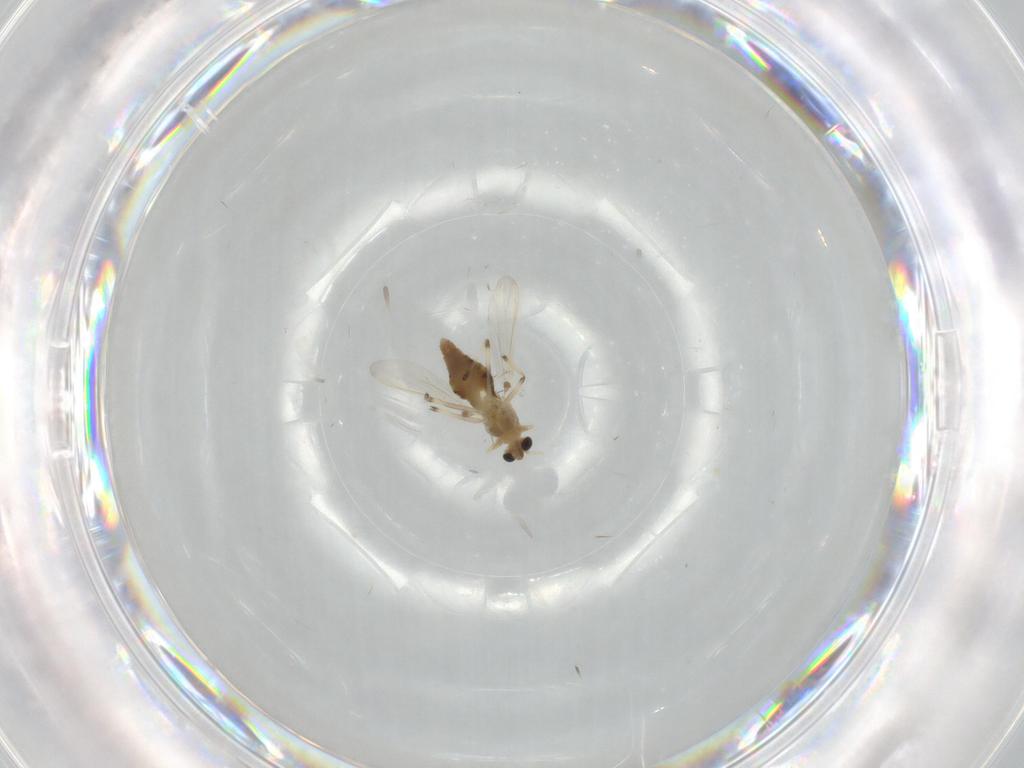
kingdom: Animalia
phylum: Arthropoda
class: Insecta
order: Diptera
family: Chironomidae
